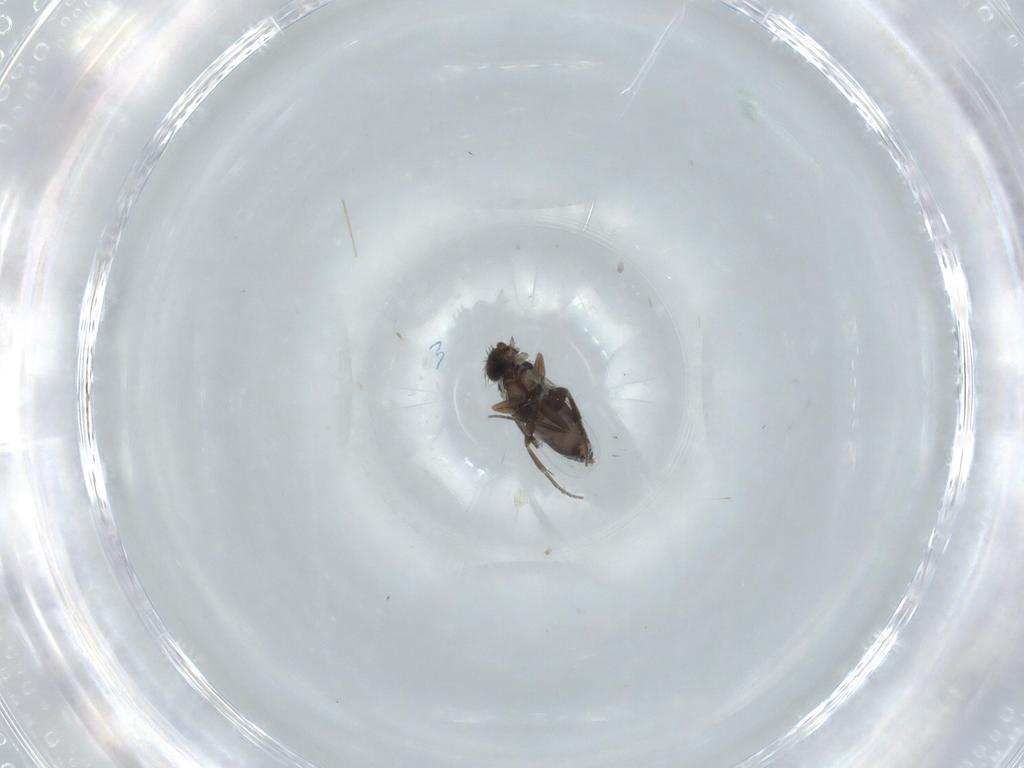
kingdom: Animalia
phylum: Arthropoda
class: Insecta
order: Diptera
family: Phoridae
